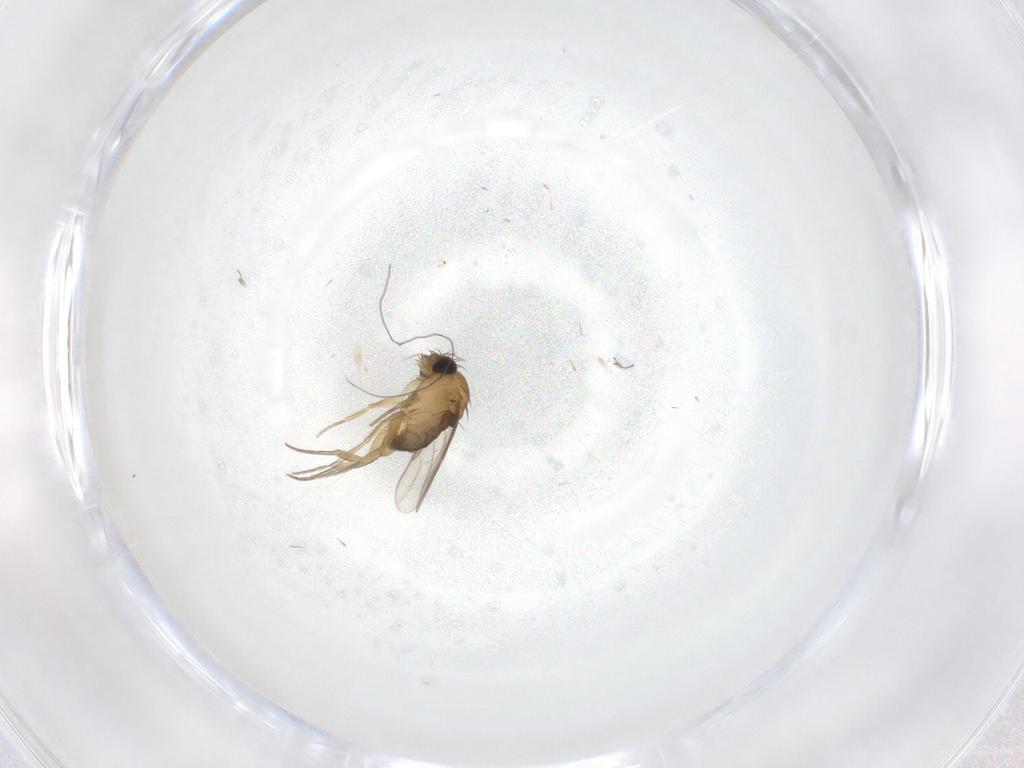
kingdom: Animalia
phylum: Arthropoda
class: Insecta
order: Diptera
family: Phoridae
